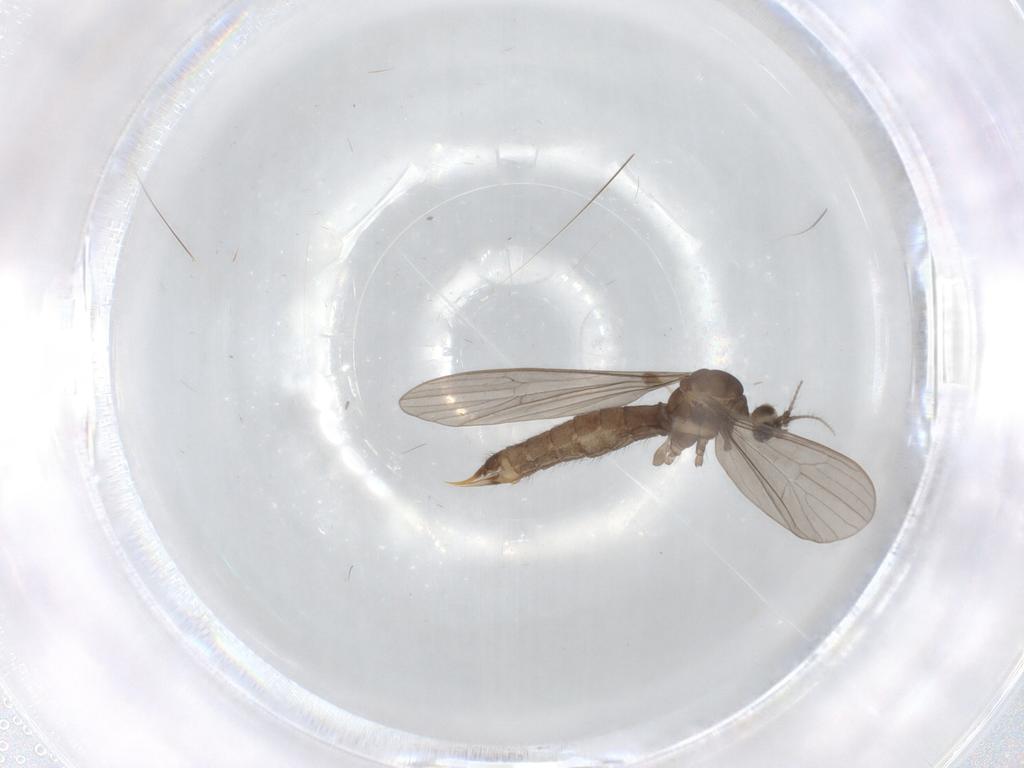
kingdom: Animalia
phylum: Arthropoda
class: Insecta
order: Diptera
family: Limoniidae
